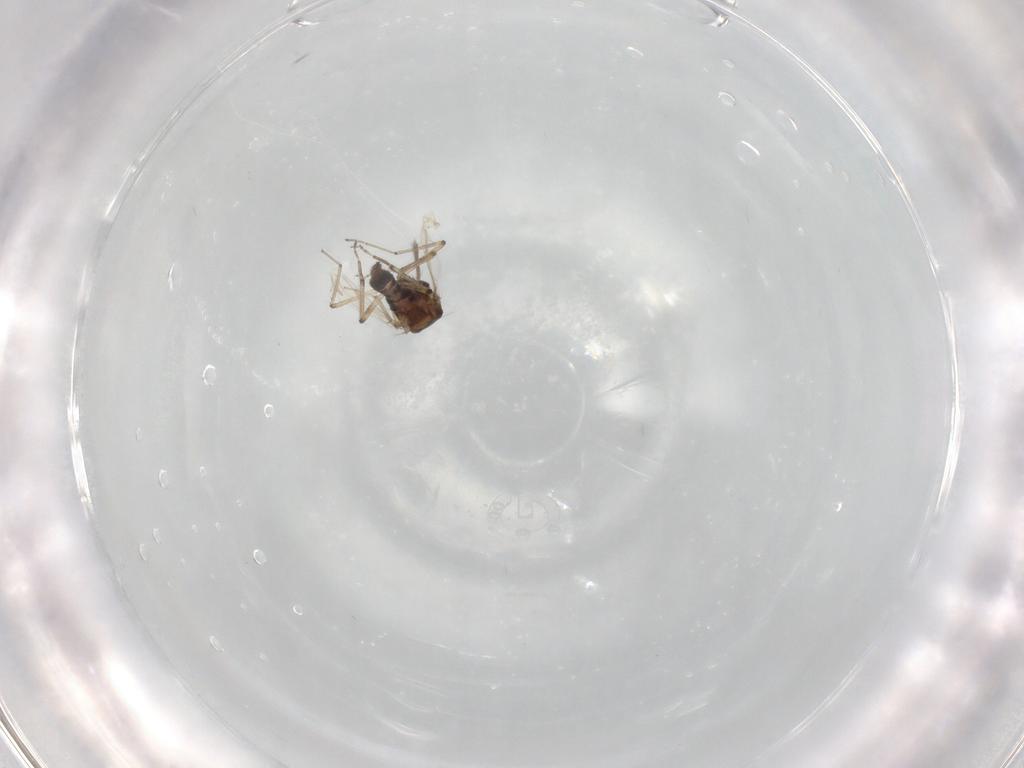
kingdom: Animalia
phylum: Arthropoda
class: Insecta
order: Diptera
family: Ceratopogonidae
